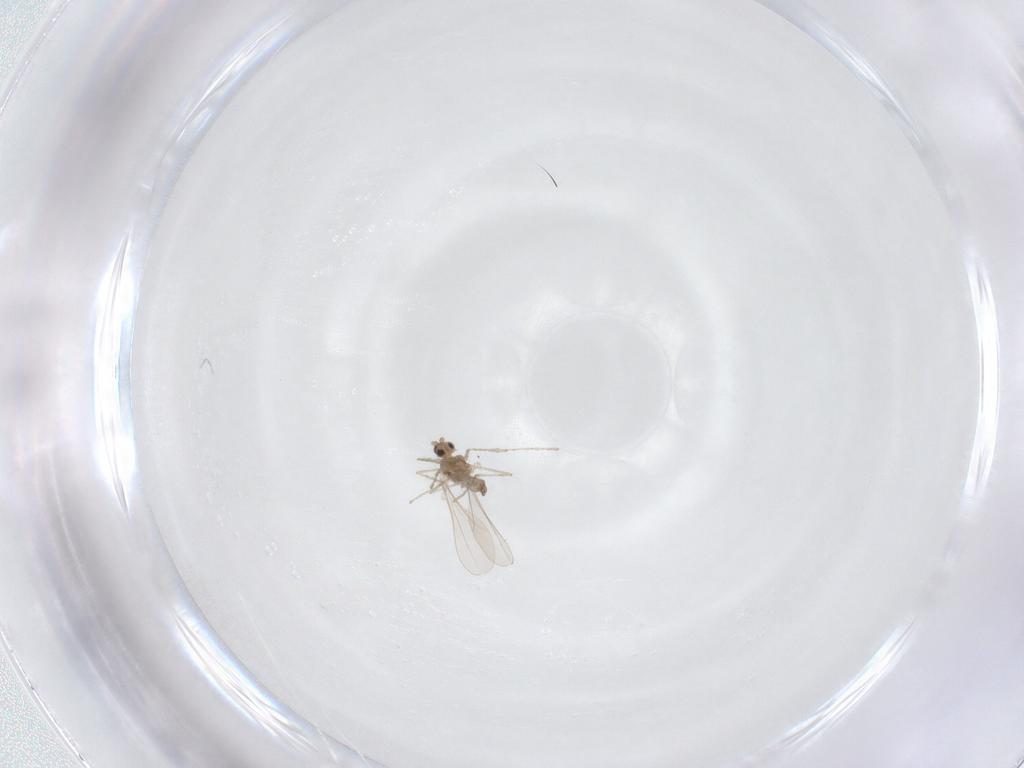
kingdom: Animalia
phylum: Arthropoda
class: Insecta
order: Diptera
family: Cecidomyiidae
